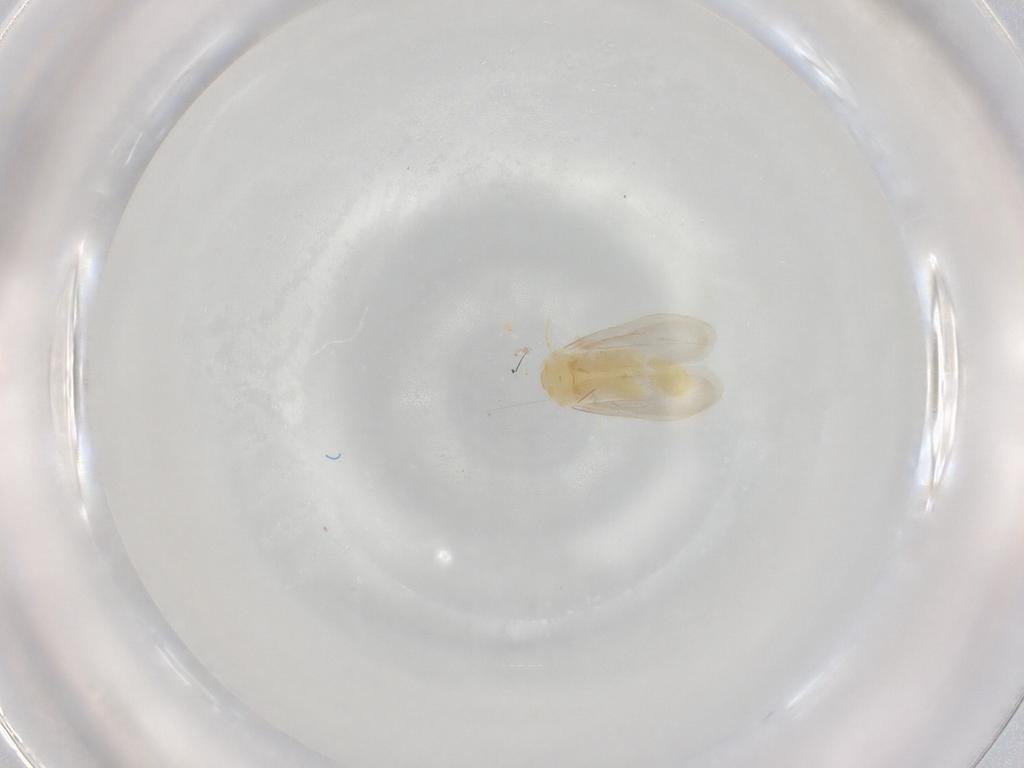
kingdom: Animalia
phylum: Arthropoda
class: Insecta
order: Hemiptera
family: Aleyrodidae
